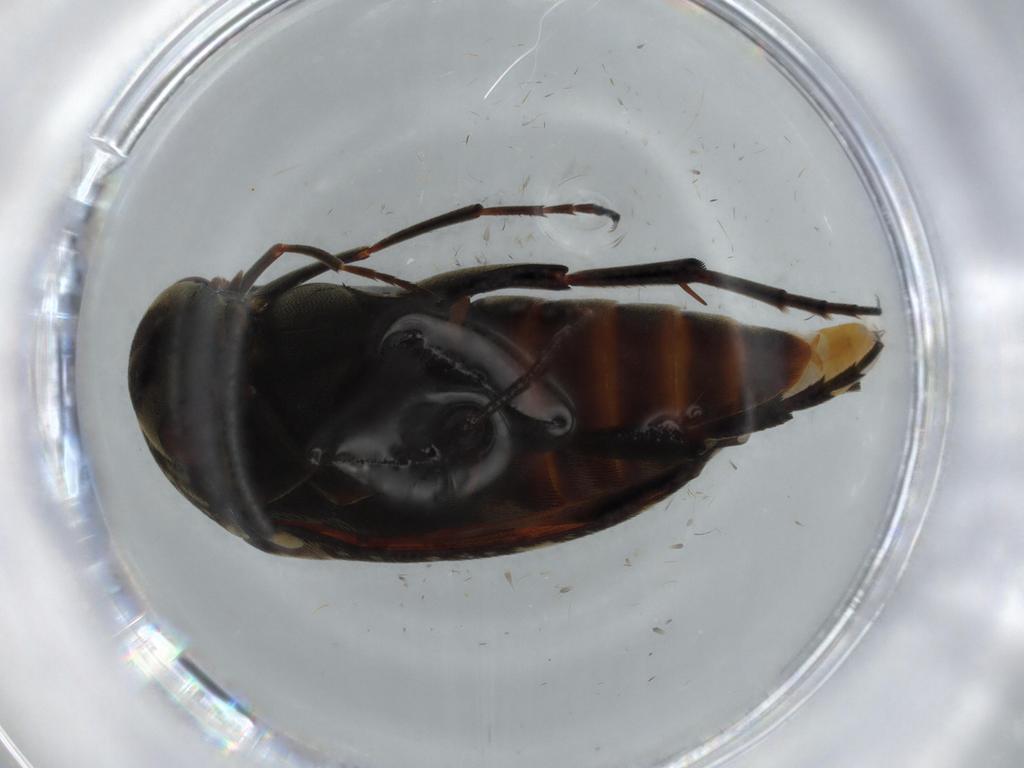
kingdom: Animalia
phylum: Arthropoda
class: Insecta
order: Coleoptera
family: Mordellidae
